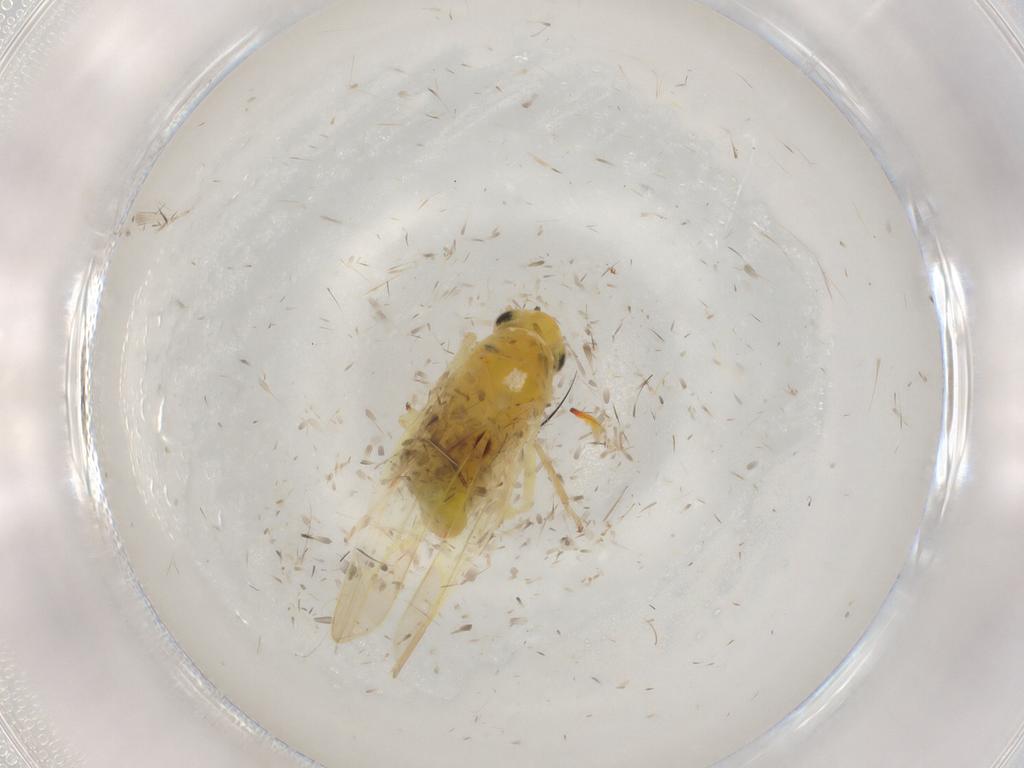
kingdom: Animalia
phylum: Arthropoda
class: Insecta
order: Hemiptera
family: Cicadellidae
